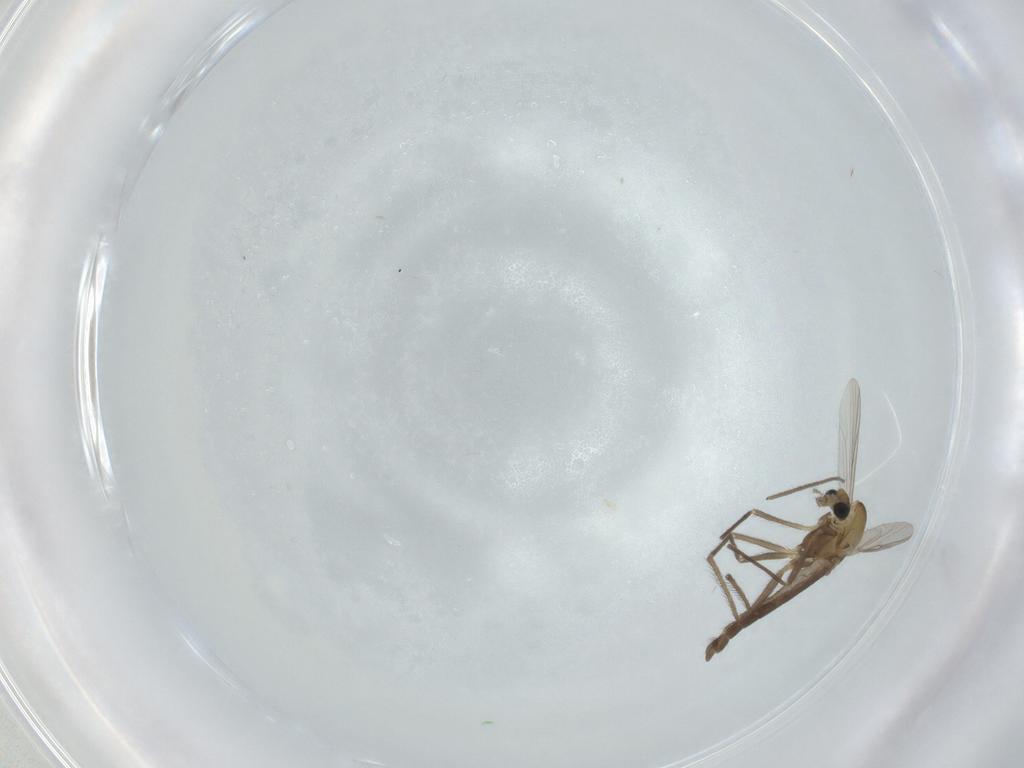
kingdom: Animalia
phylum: Arthropoda
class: Insecta
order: Diptera
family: Chironomidae
